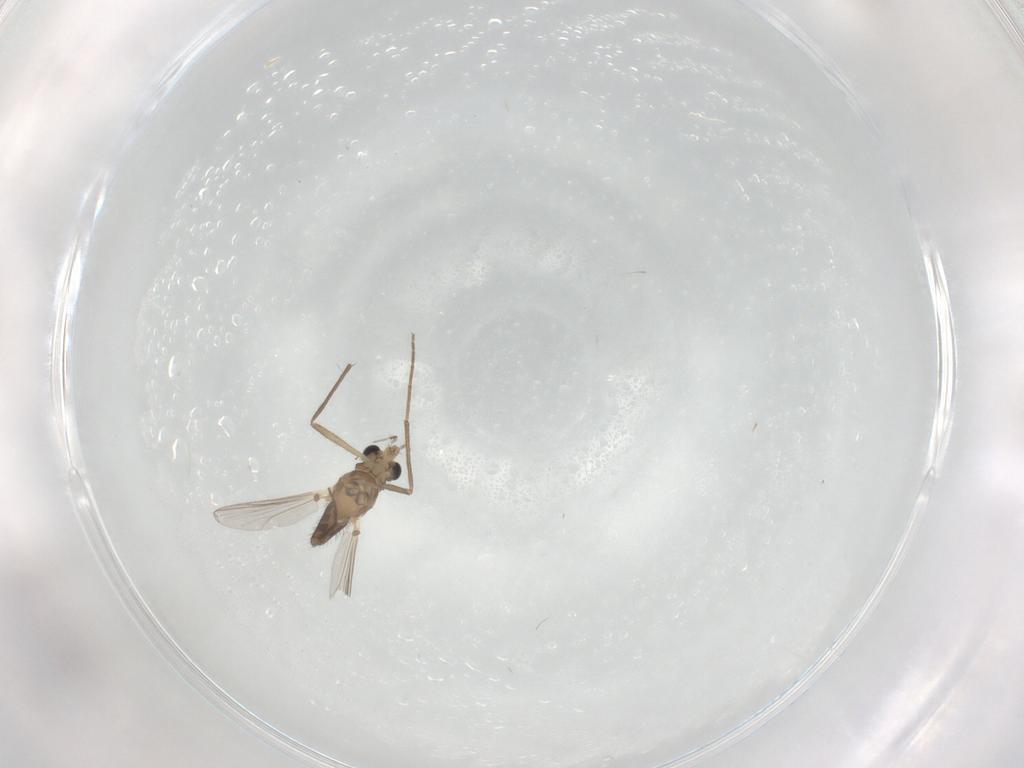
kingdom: Animalia
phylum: Arthropoda
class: Insecta
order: Diptera
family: Chironomidae
